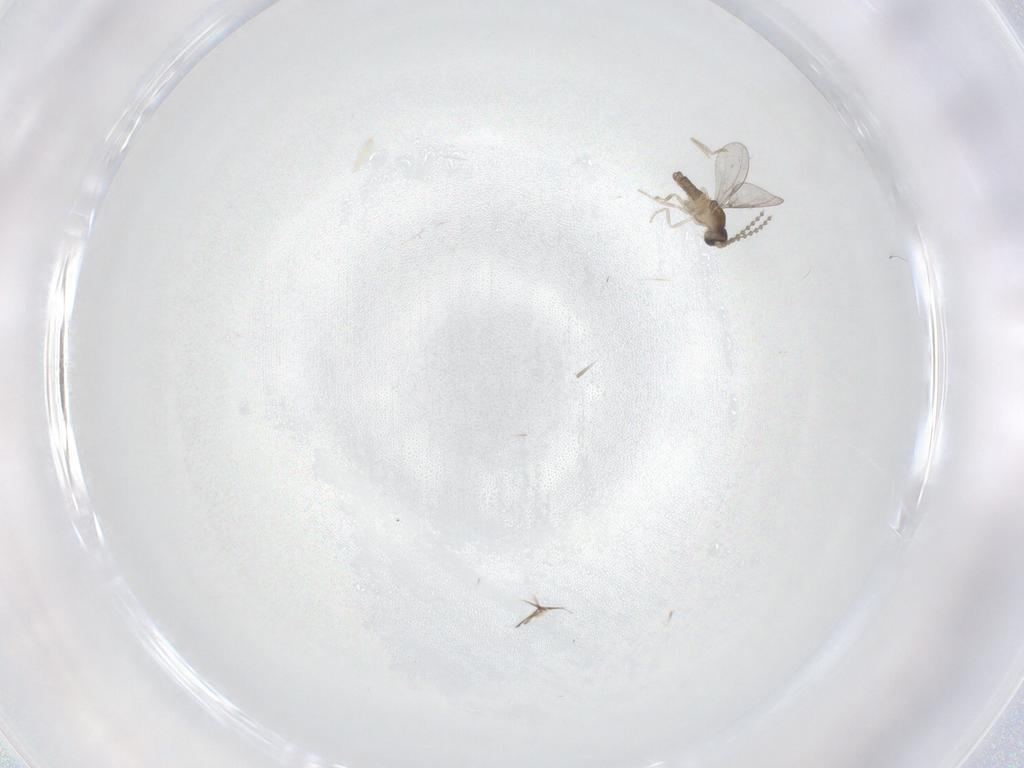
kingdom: Animalia
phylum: Arthropoda
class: Insecta
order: Diptera
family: Cecidomyiidae
